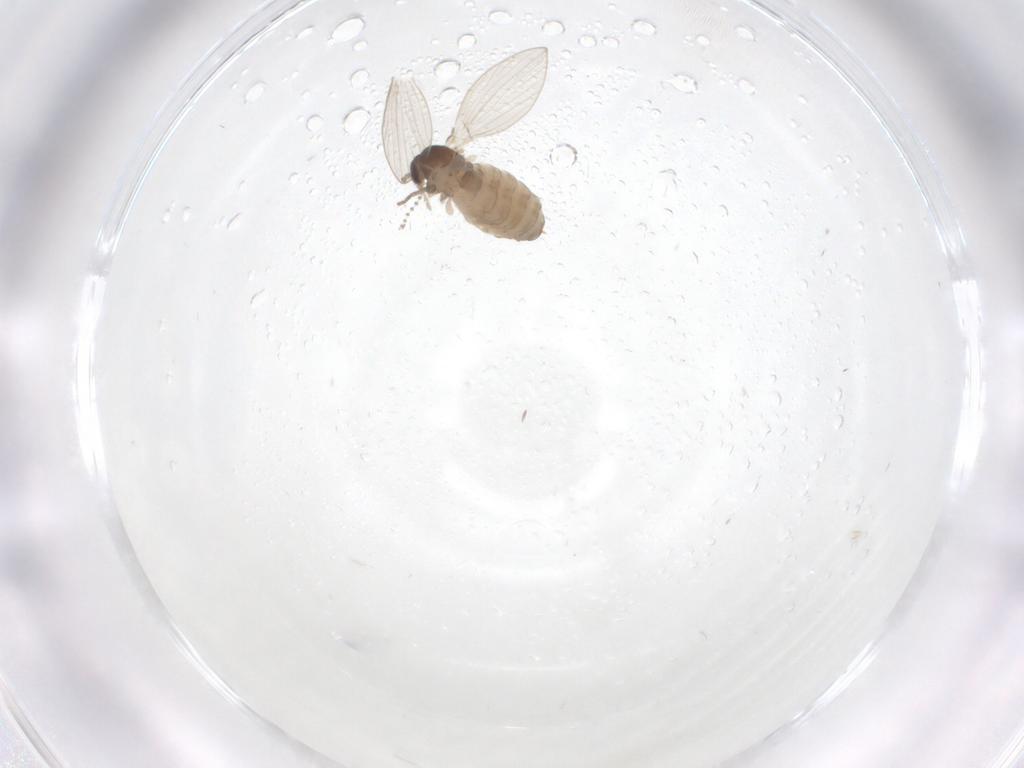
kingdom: Animalia
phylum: Arthropoda
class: Insecta
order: Diptera
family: Psychodidae
